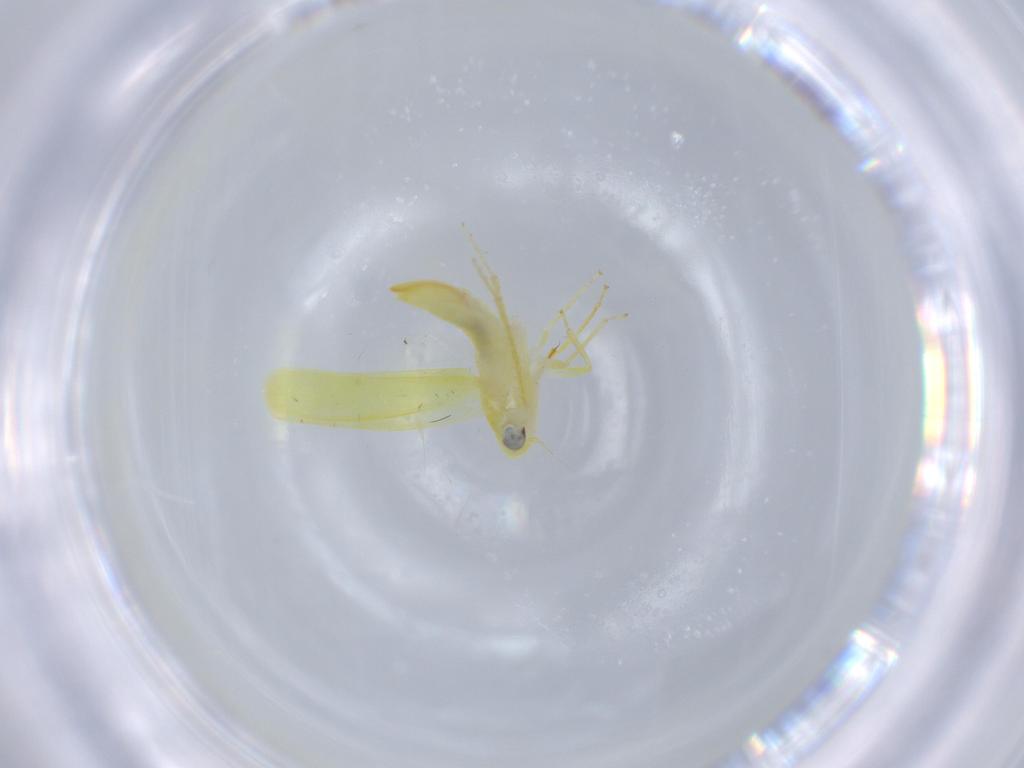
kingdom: Animalia
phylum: Arthropoda
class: Insecta
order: Hemiptera
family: Cicadellidae
